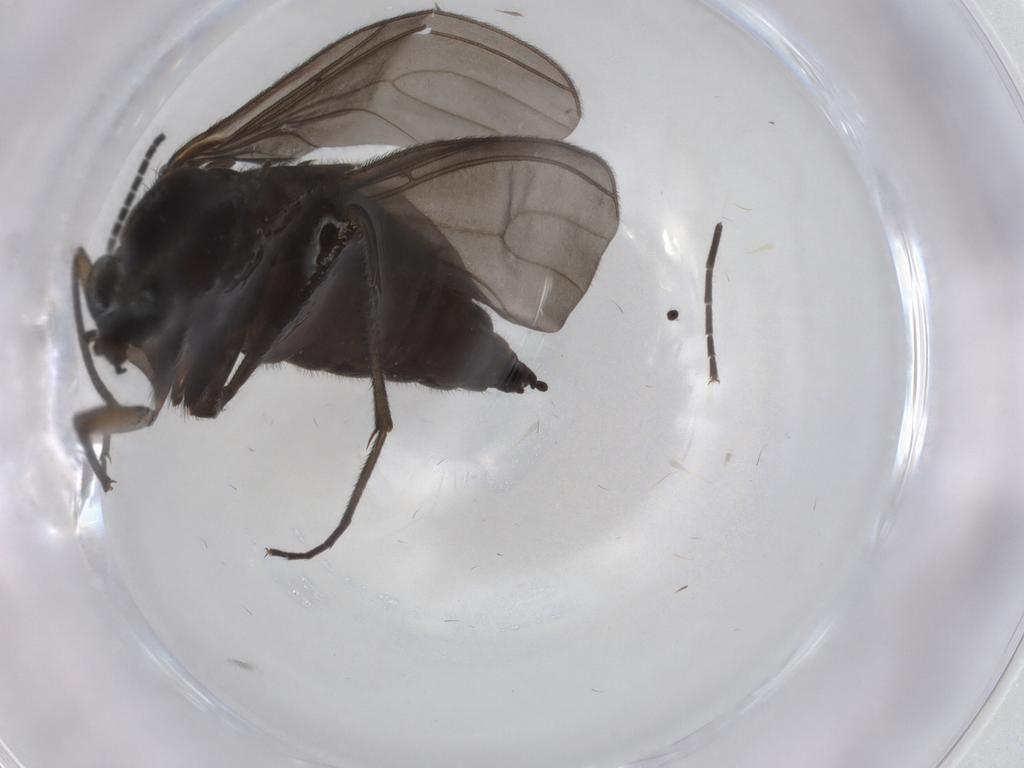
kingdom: Animalia
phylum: Arthropoda
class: Insecta
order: Diptera
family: Sciaridae
